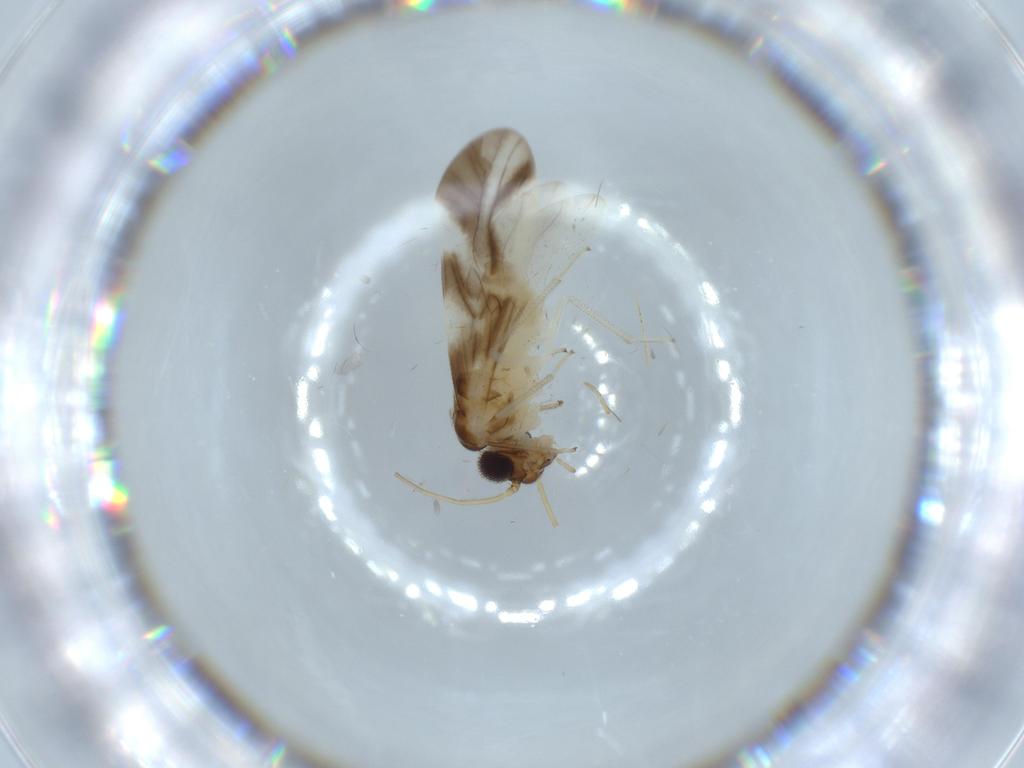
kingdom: Animalia
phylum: Arthropoda
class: Insecta
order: Psocodea
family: Caeciliusidae
